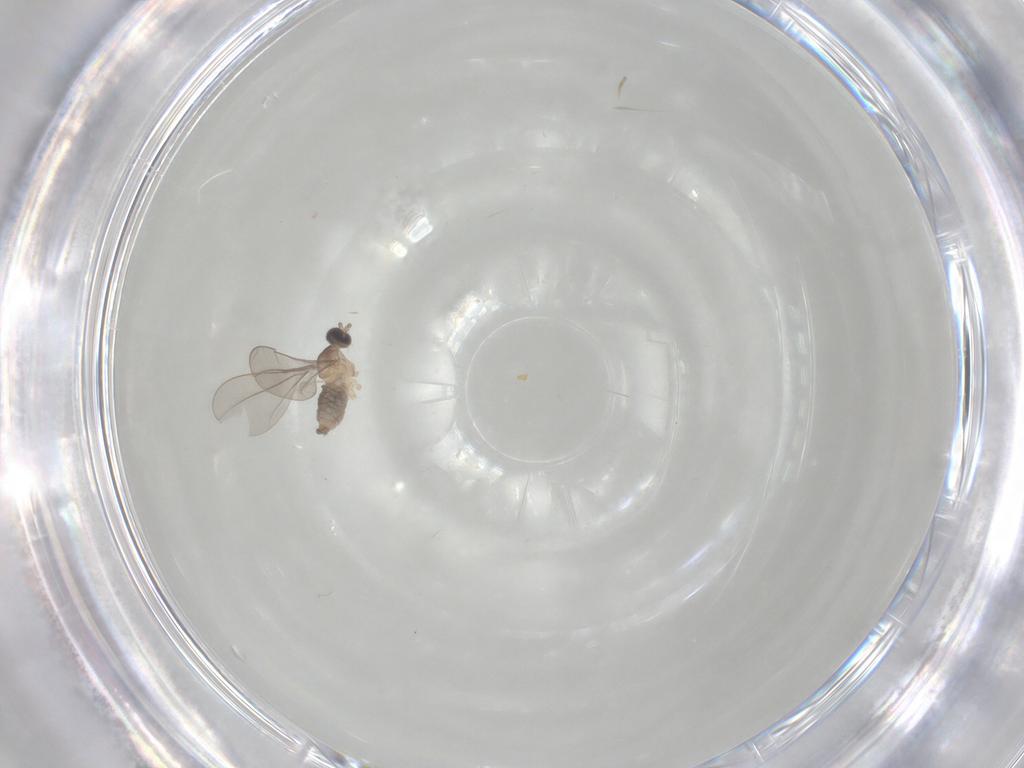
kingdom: Animalia
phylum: Arthropoda
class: Insecta
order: Diptera
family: Cecidomyiidae
